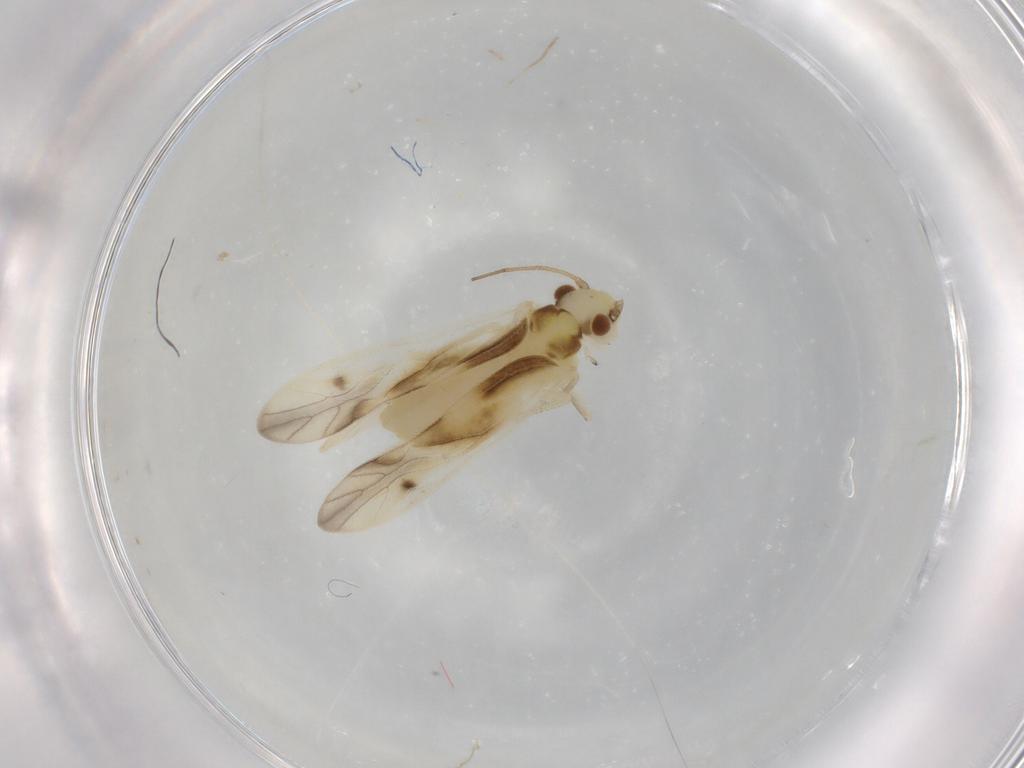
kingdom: Animalia
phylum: Arthropoda
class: Insecta
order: Psocodea
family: Caeciliusidae
